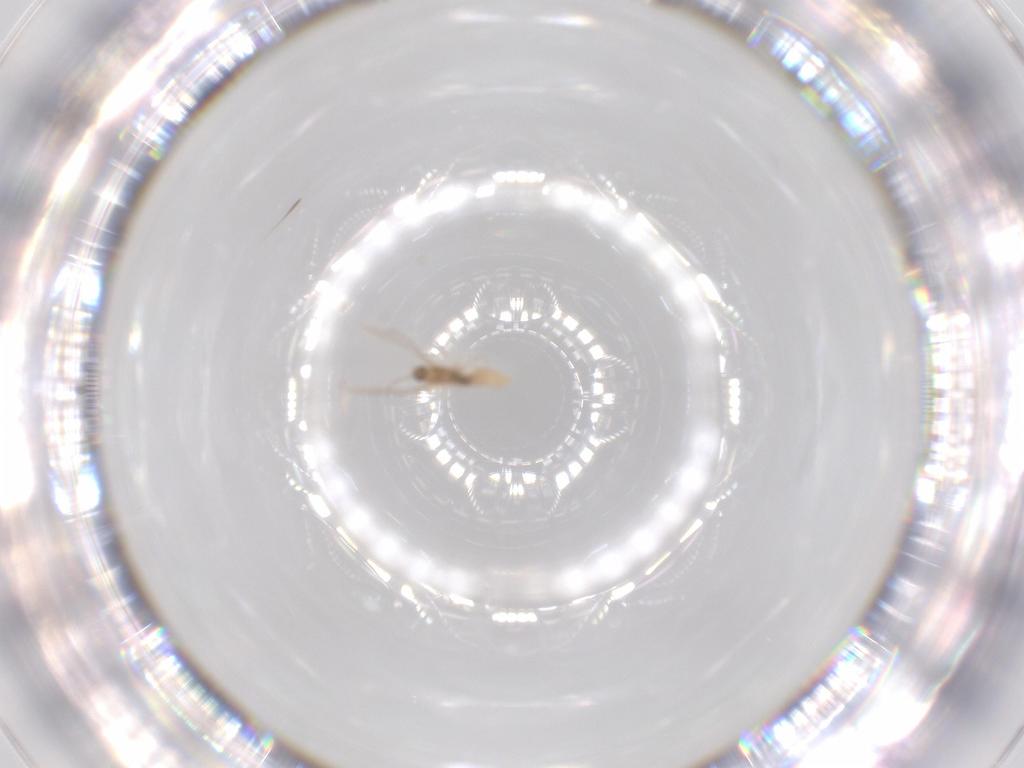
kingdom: Animalia
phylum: Arthropoda
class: Insecta
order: Diptera
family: Cecidomyiidae
